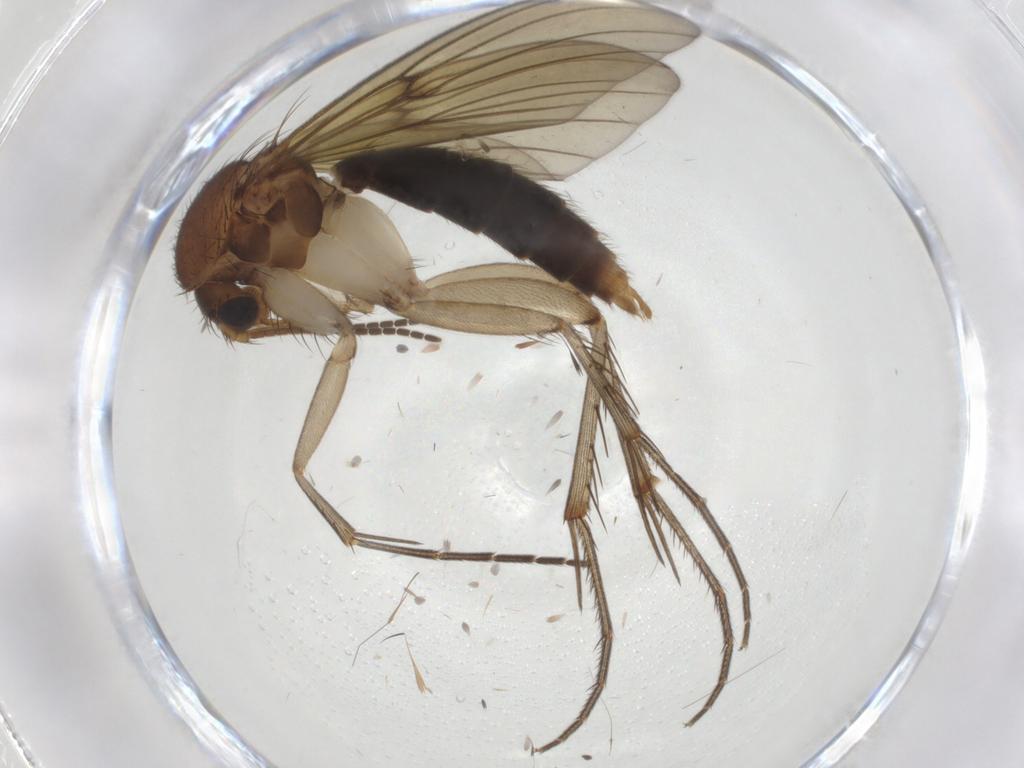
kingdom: Animalia
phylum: Arthropoda
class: Insecta
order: Diptera
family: Mycetophilidae
